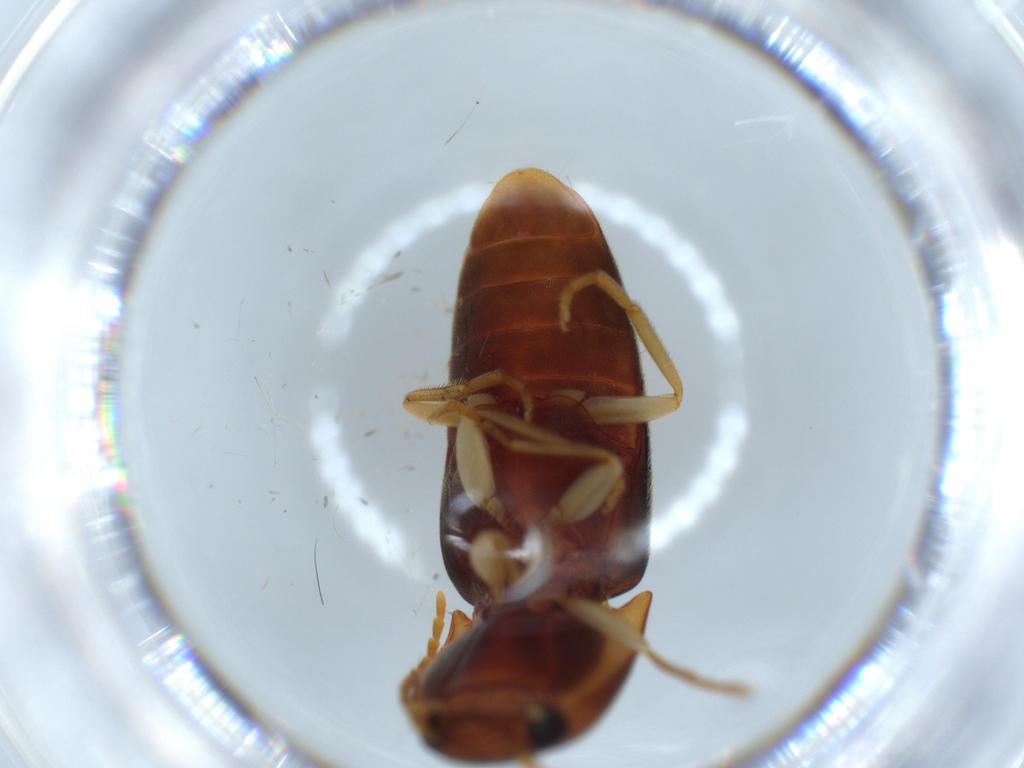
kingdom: Animalia
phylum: Arthropoda
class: Insecta
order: Coleoptera
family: Elateridae
